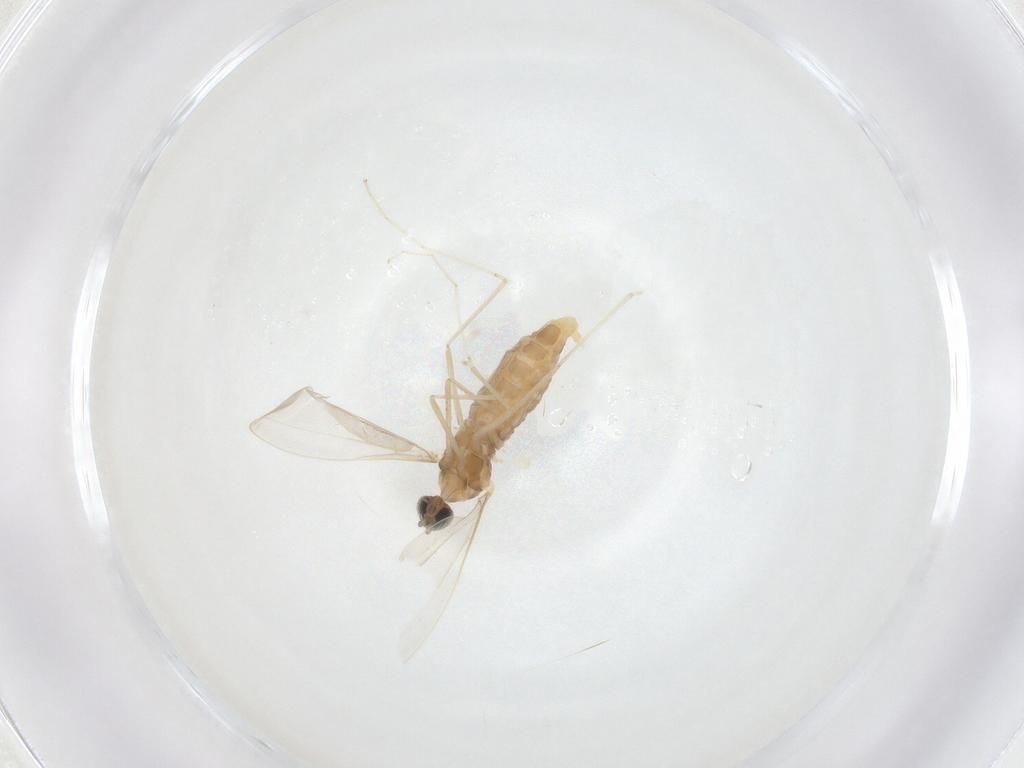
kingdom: Animalia
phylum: Arthropoda
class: Insecta
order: Diptera
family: Cecidomyiidae
